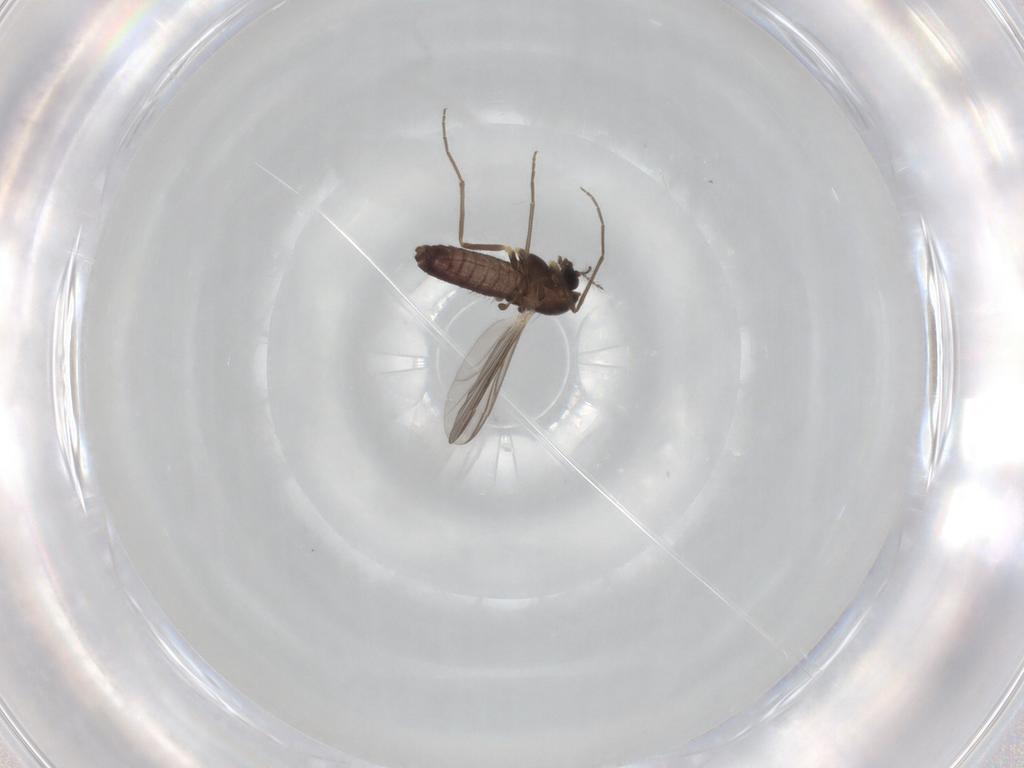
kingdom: Animalia
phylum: Arthropoda
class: Insecta
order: Diptera
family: Chironomidae
